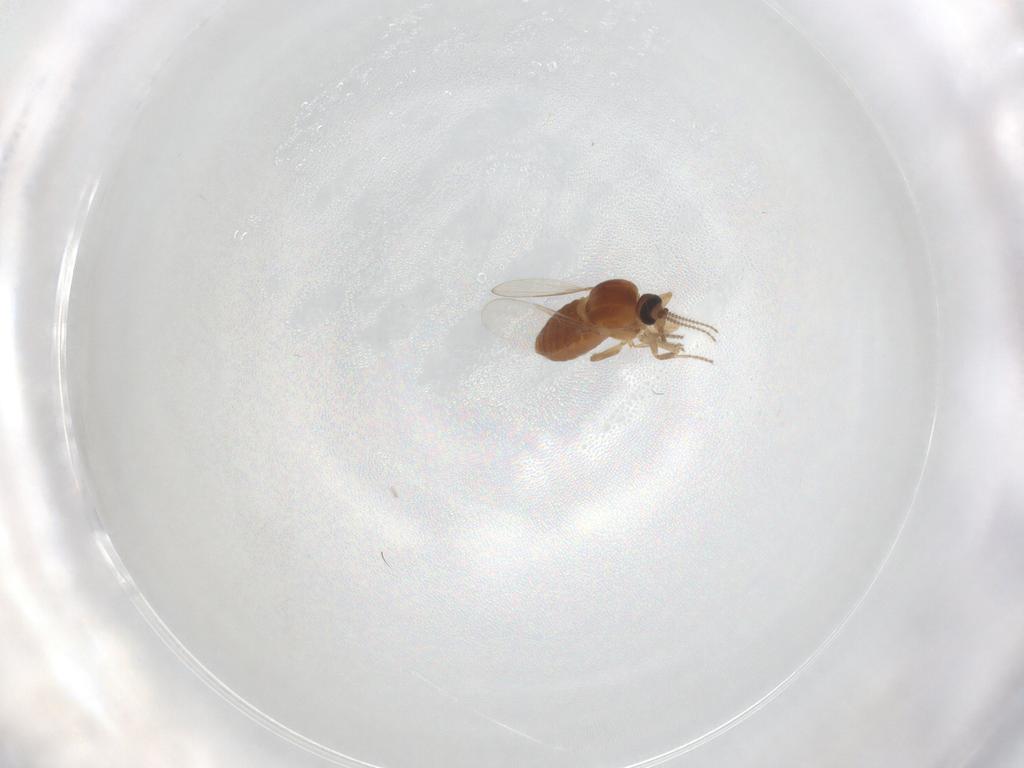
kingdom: Animalia
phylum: Arthropoda
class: Insecta
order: Diptera
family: Ceratopogonidae
